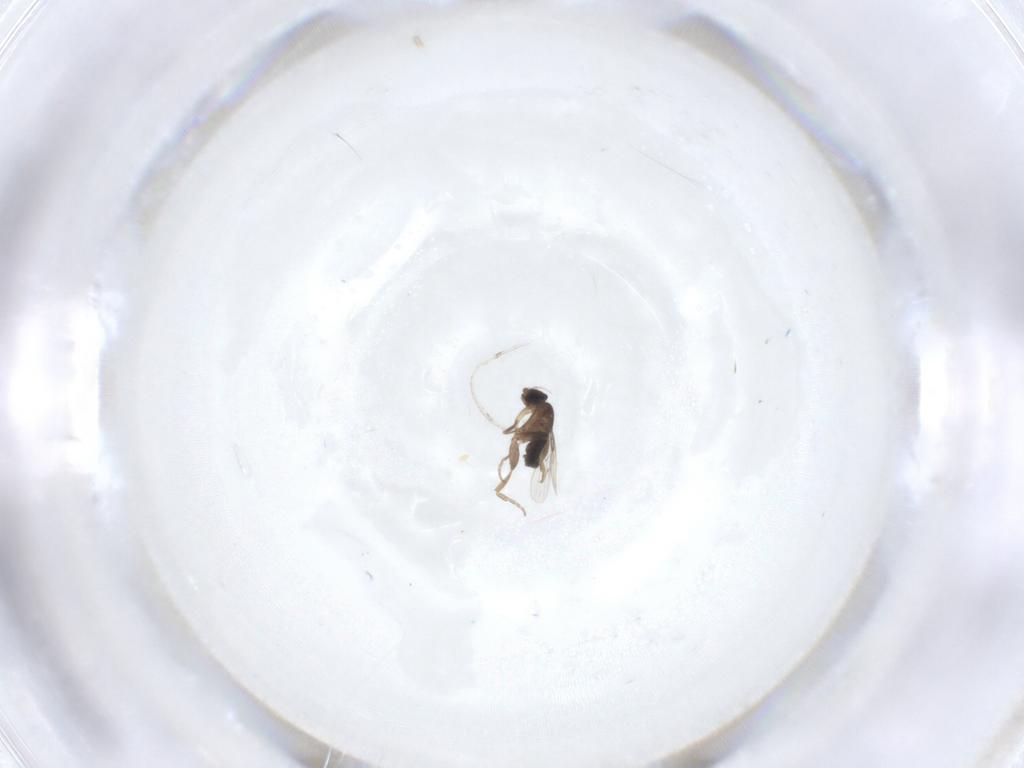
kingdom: Animalia
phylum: Arthropoda
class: Insecta
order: Diptera
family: Phoridae
